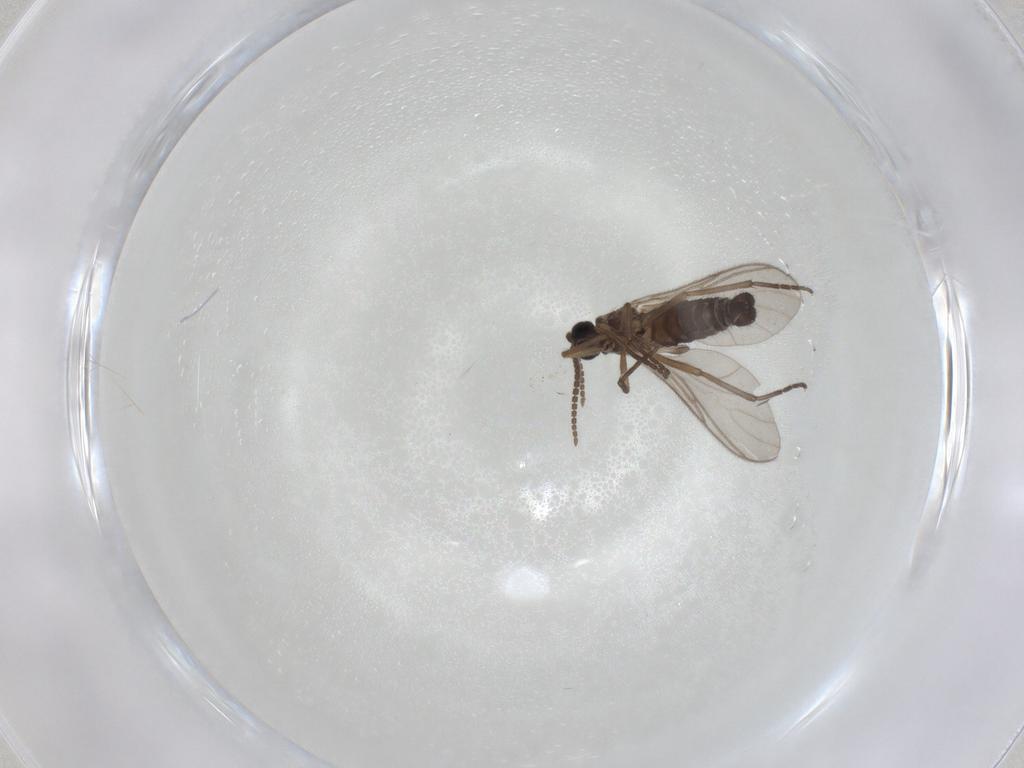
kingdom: Animalia
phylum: Arthropoda
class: Insecta
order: Diptera
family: Sciaridae
